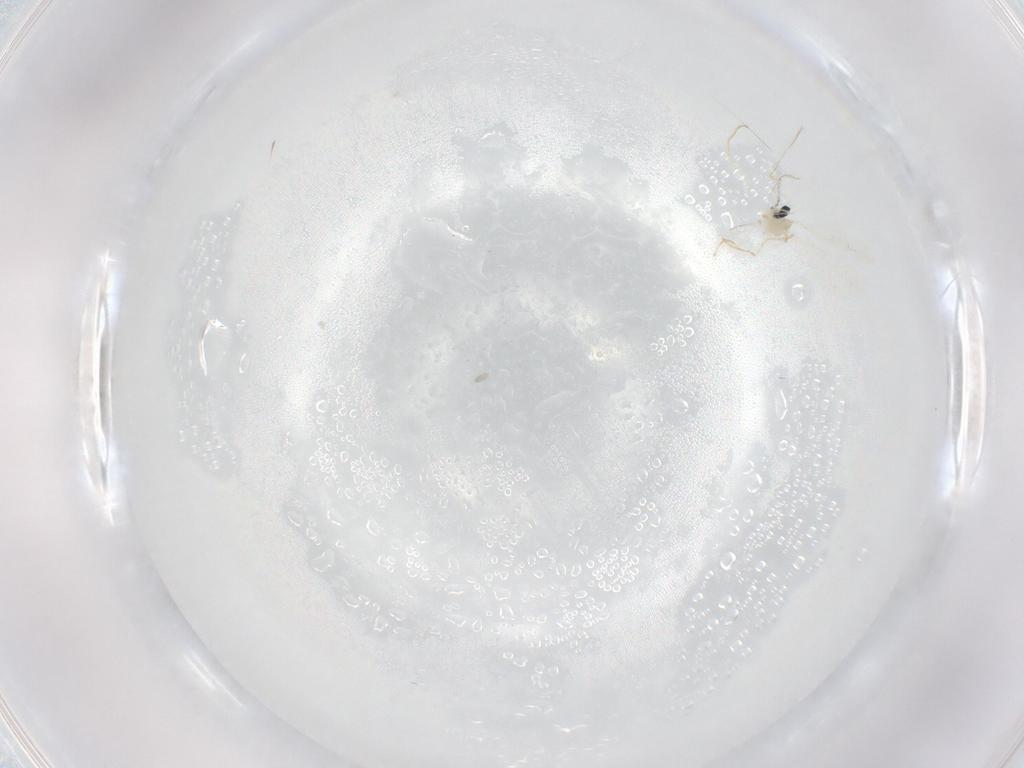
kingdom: Animalia
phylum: Arthropoda
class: Insecta
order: Diptera
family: Cecidomyiidae
